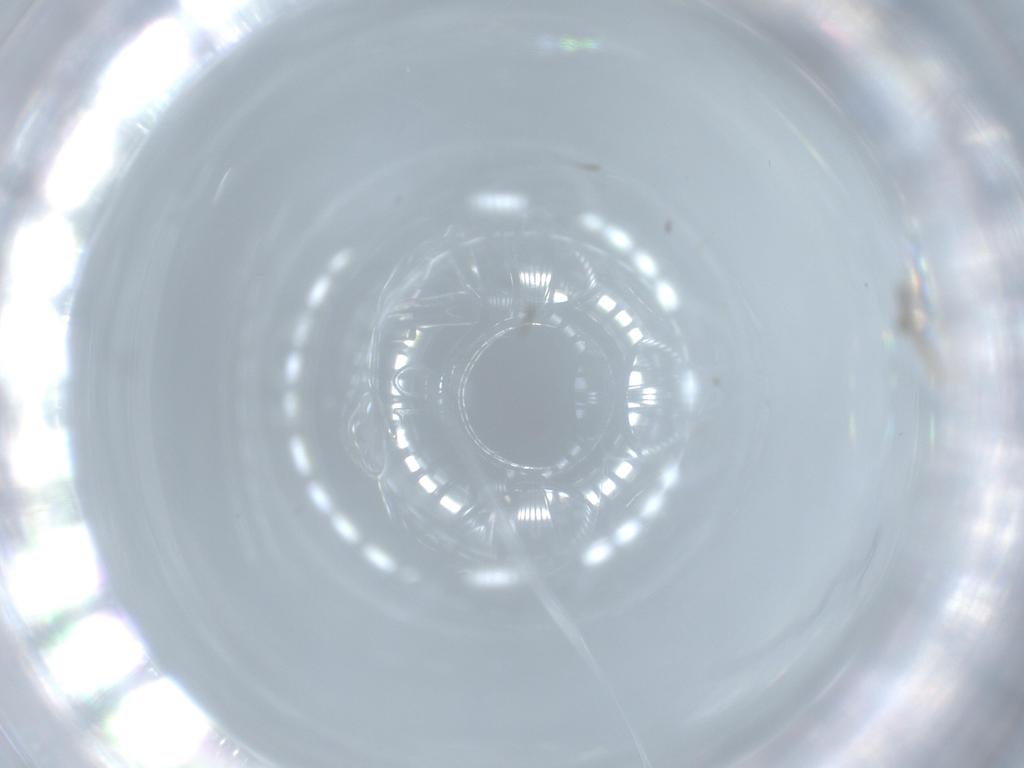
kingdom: Animalia
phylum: Arthropoda
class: Insecta
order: Diptera
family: Cecidomyiidae
